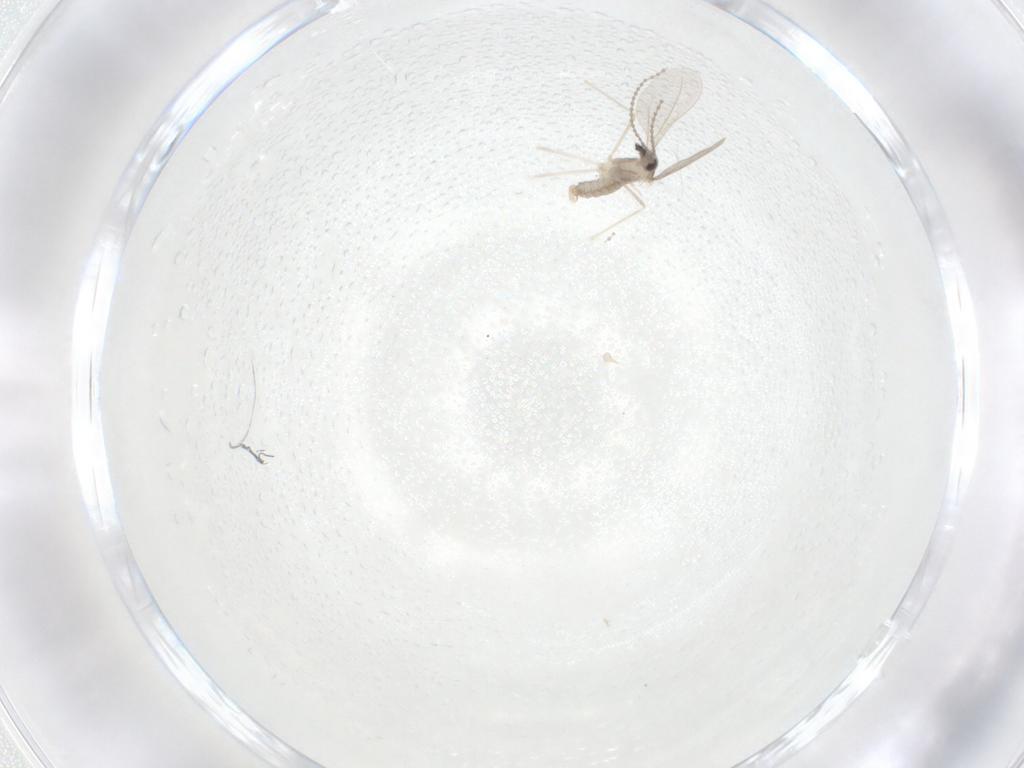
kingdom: Animalia
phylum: Arthropoda
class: Insecta
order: Diptera
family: Cecidomyiidae
